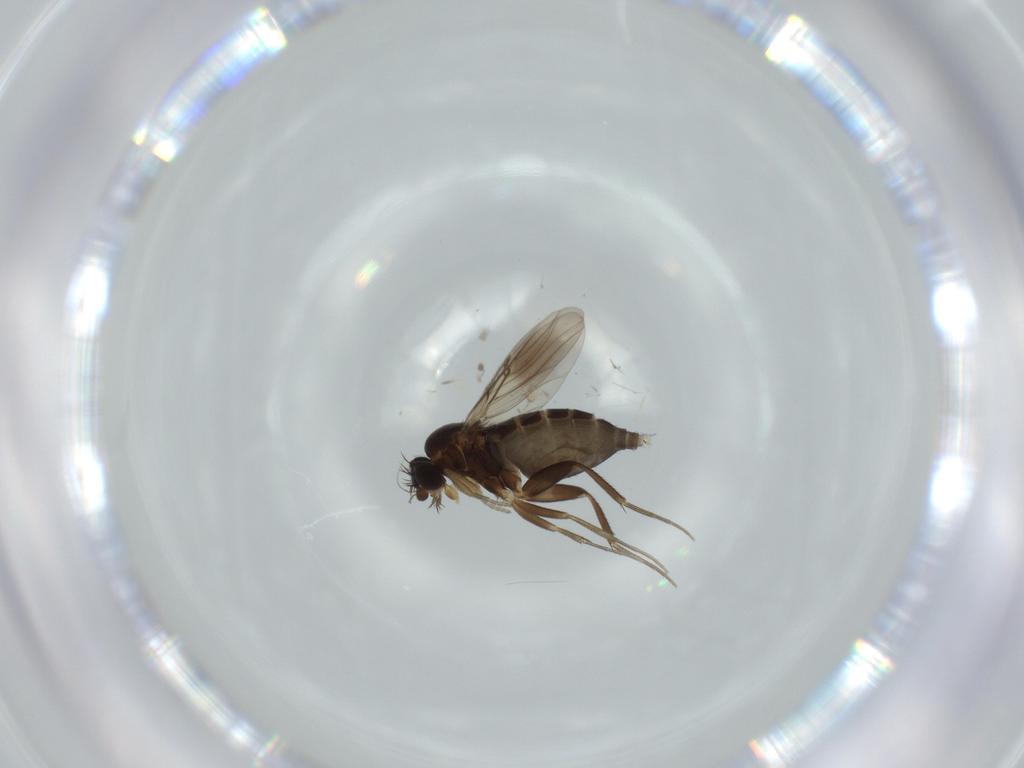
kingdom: Animalia
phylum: Arthropoda
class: Insecta
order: Diptera
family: Phoridae
